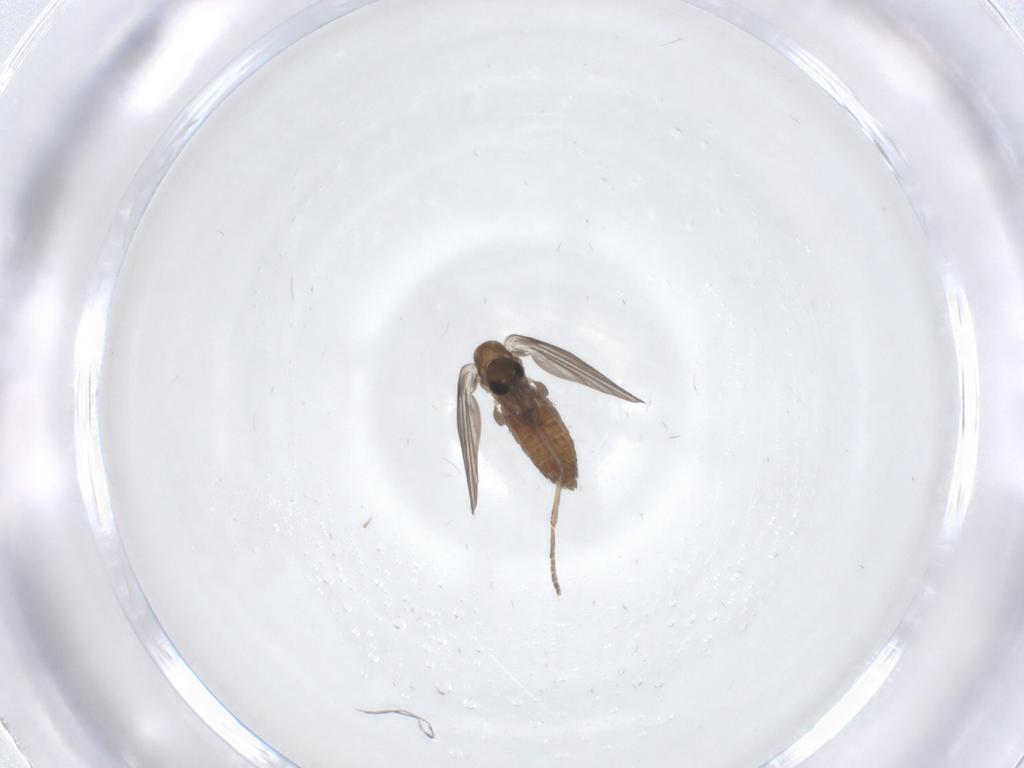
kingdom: Animalia
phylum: Arthropoda
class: Insecta
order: Diptera
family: Psychodidae
